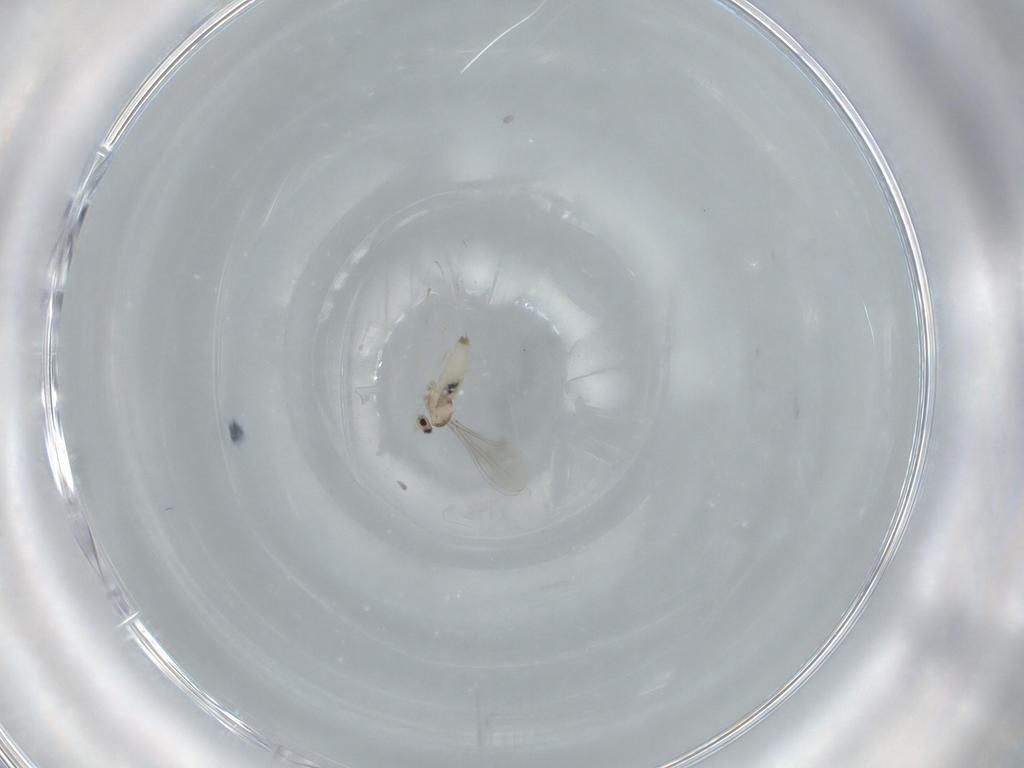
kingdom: Animalia
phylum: Arthropoda
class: Insecta
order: Diptera
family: Cecidomyiidae
